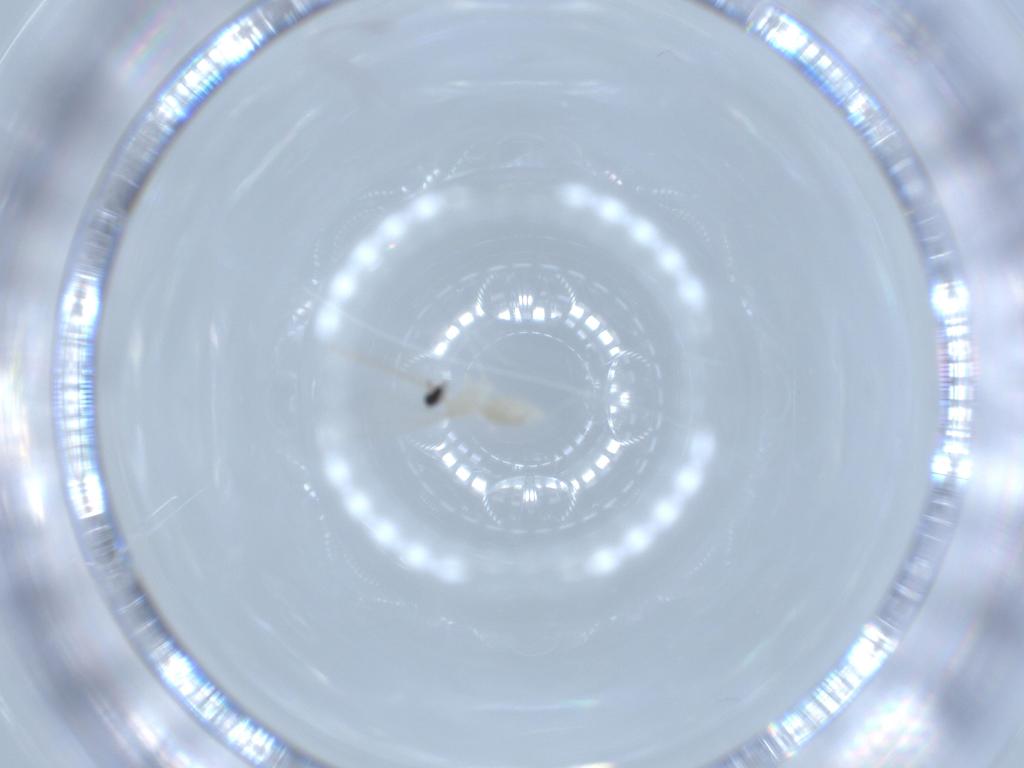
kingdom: Animalia
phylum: Arthropoda
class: Insecta
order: Diptera
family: Cecidomyiidae
